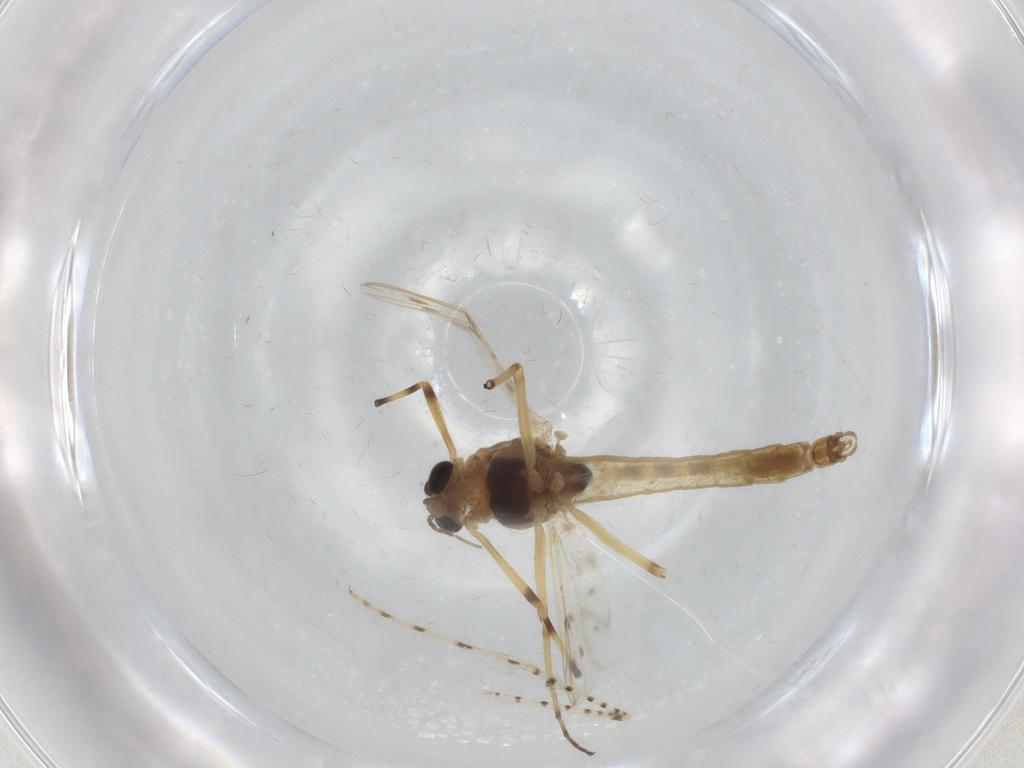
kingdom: Animalia
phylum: Arthropoda
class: Insecta
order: Diptera
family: Chironomidae
